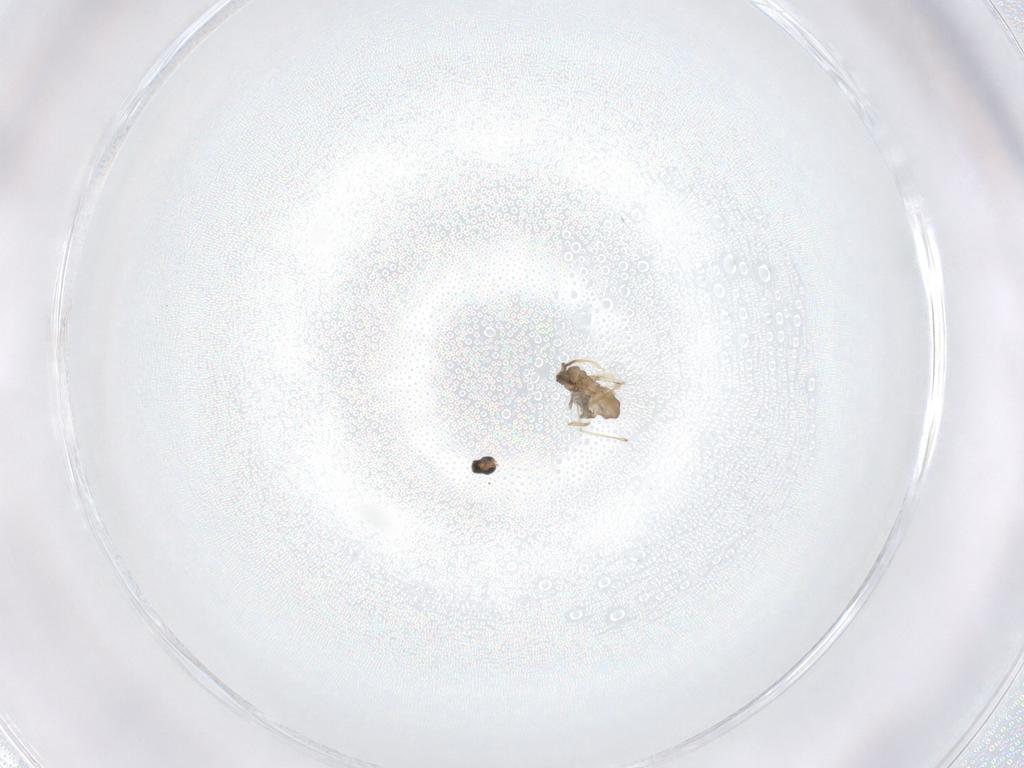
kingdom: Animalia
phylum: Arthropoda
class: Insecta
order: Diptera
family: Cecidomyiidae
